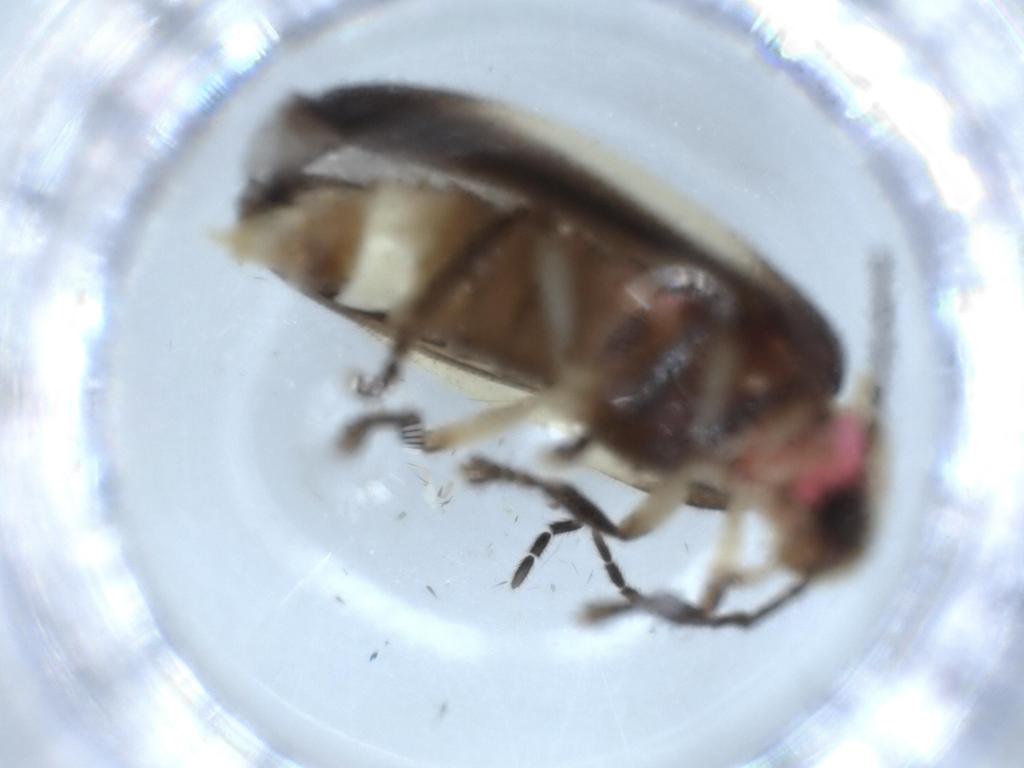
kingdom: Animalia
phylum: Arthropoda
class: Insecta
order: Coleoptera
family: Lampyridae
